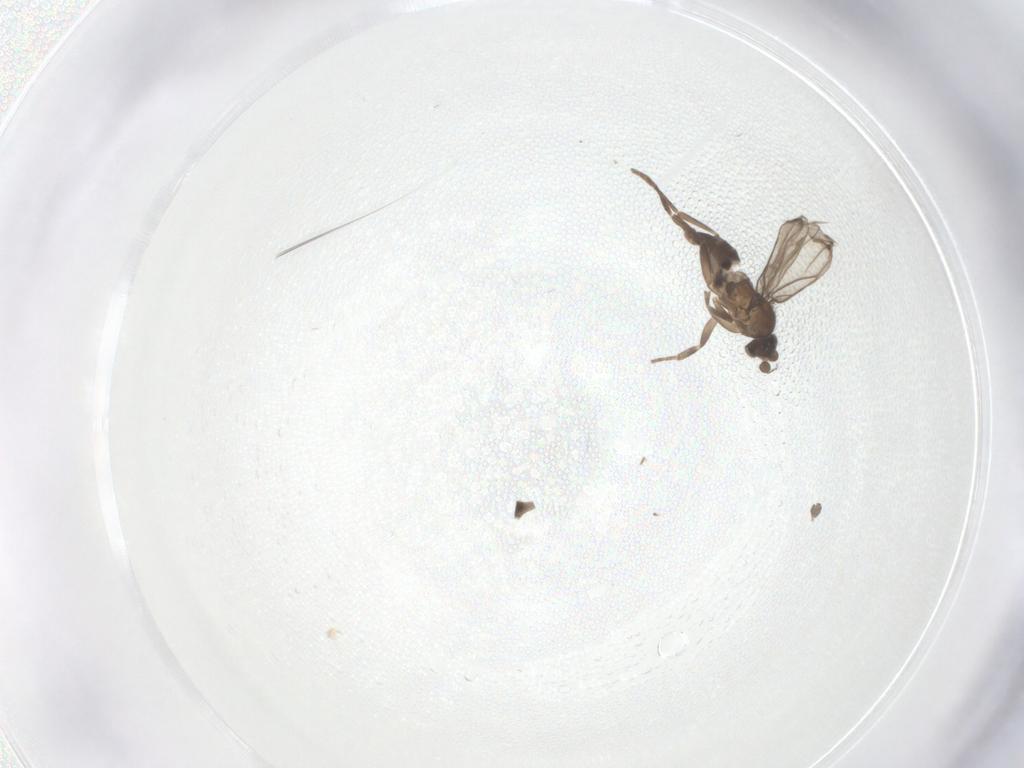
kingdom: Animalia
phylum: Arthropoda
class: Insecta
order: Diptera
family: Phoridae
